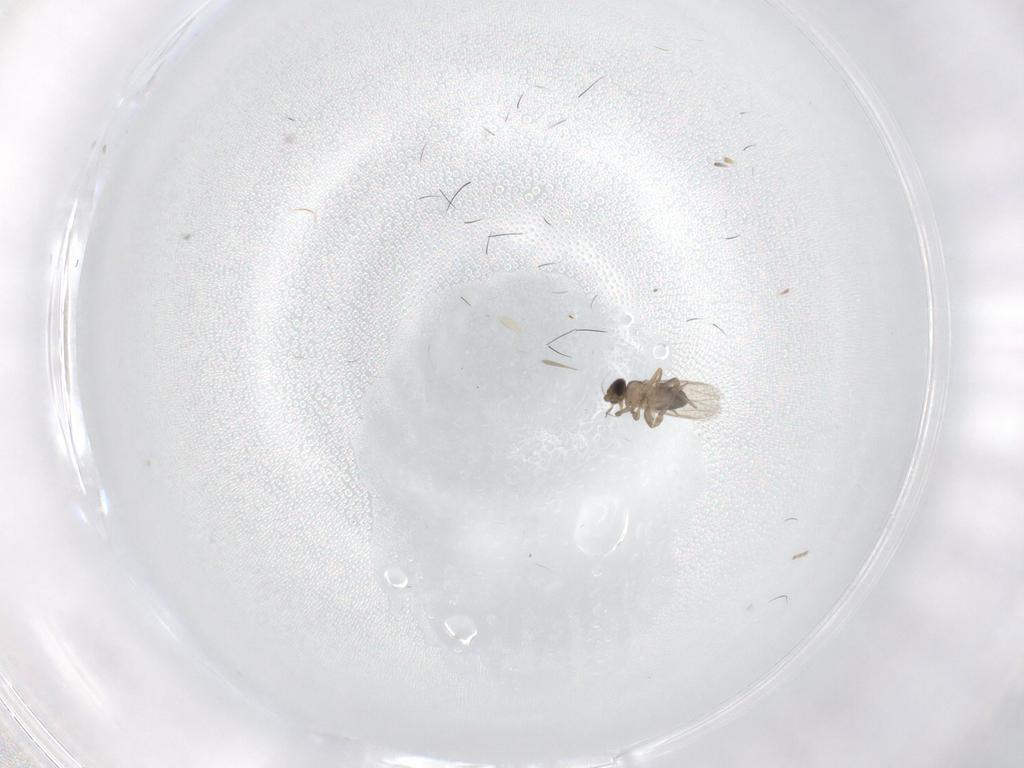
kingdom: Animalia
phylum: Arthropoda
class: Insecta
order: Diptera
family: Phoridae
